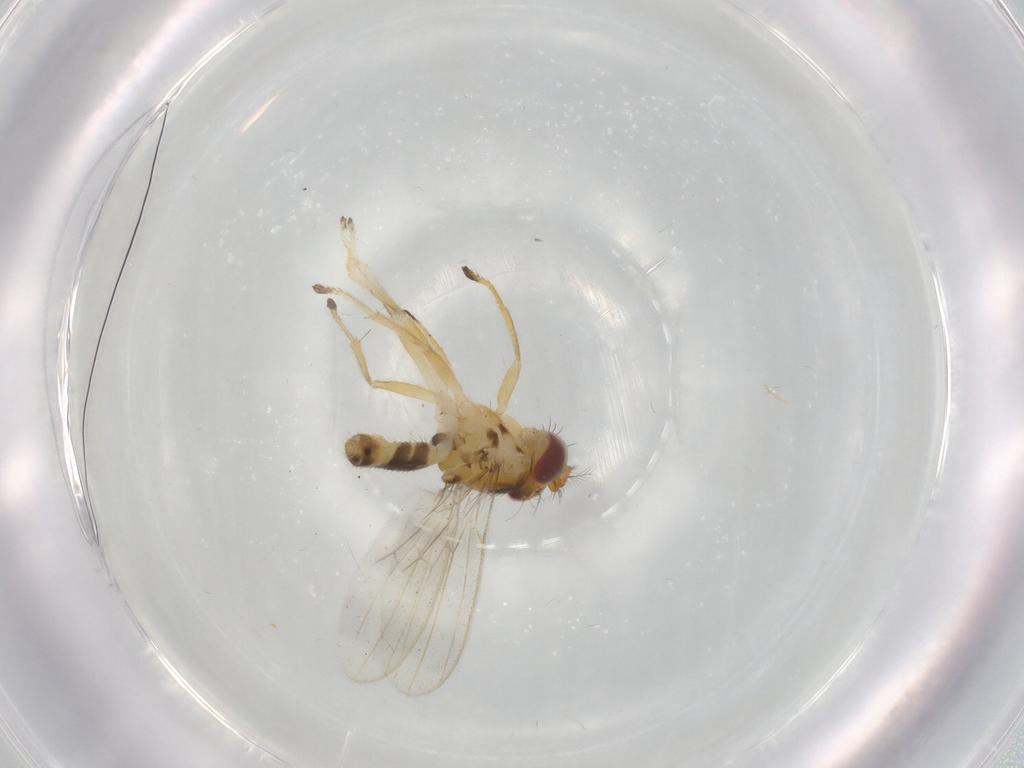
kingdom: Animalia
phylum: Arthropoda
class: Insecta
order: Diptera
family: Periscelididae
